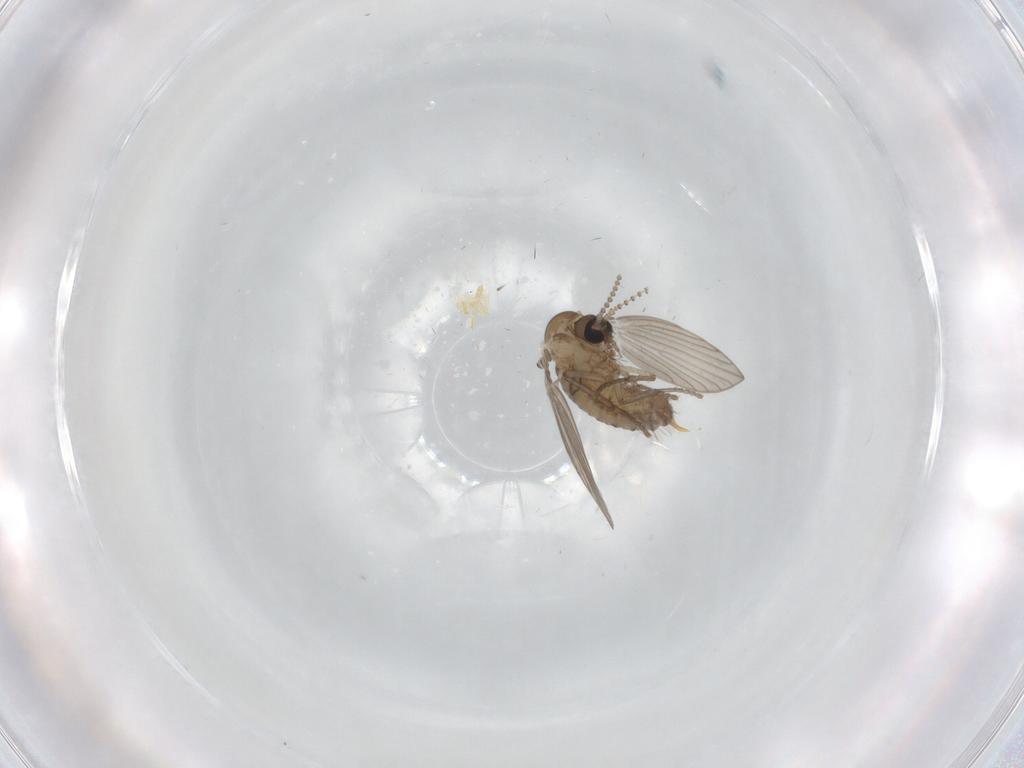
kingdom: Animalia
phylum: Arthropoda
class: Insecta
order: Diptera
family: Psychodidae
